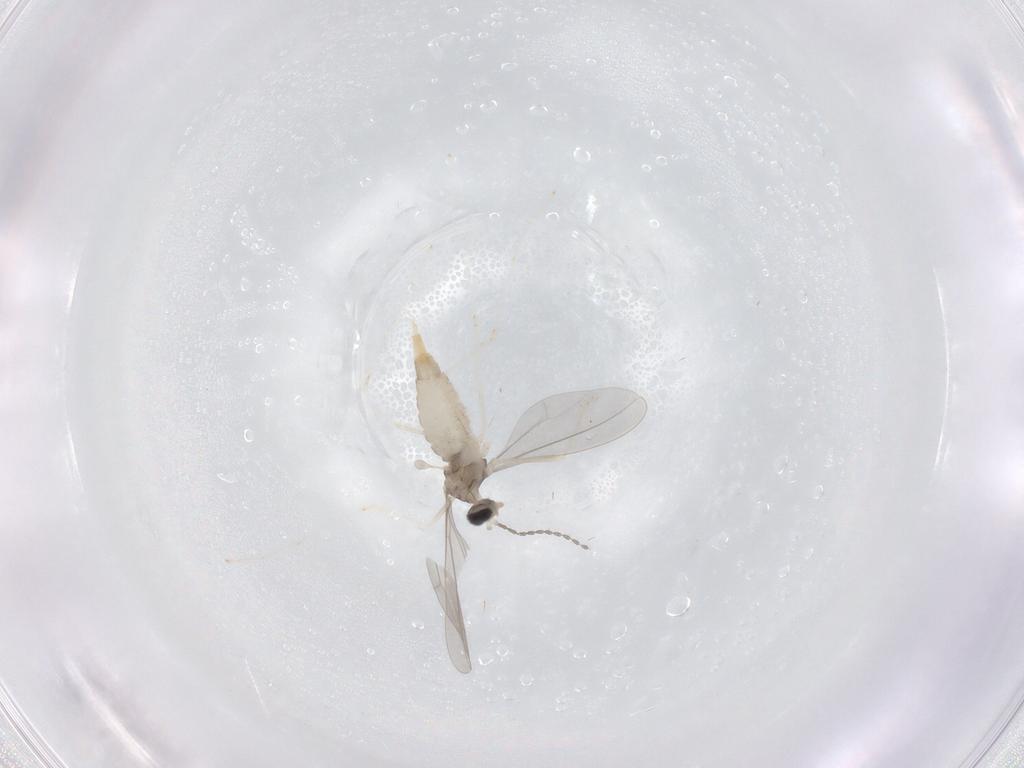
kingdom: Animalia
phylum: Arthropoda
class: Insecta
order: Diptera
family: Cecidomyiidae
